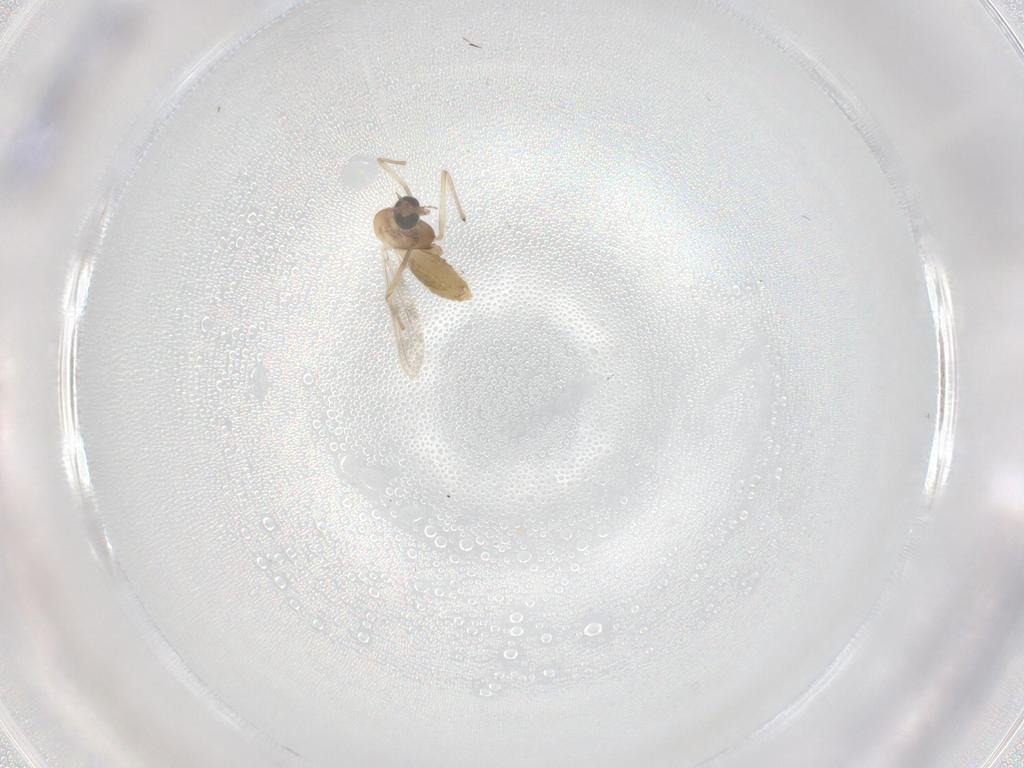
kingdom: Animalia
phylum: Arthropoda
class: Insecta
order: Diptera
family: Chironomidae
